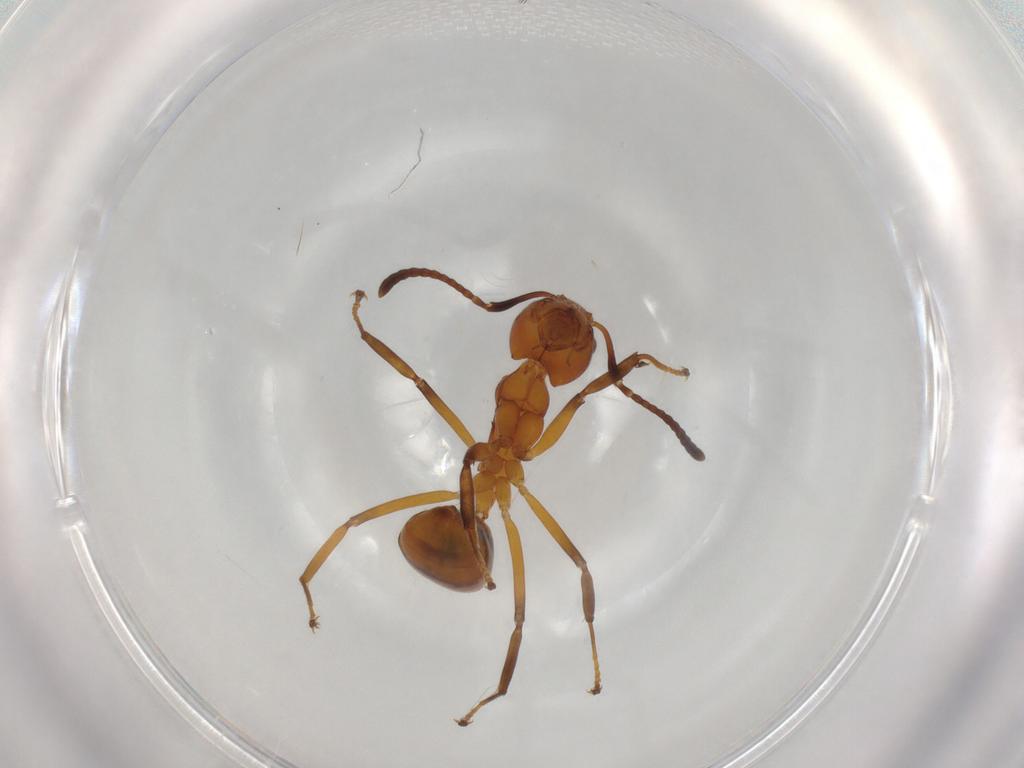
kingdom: Animalia
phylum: Arthropoda
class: Insecta
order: Hymenoptera
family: Formicidae
